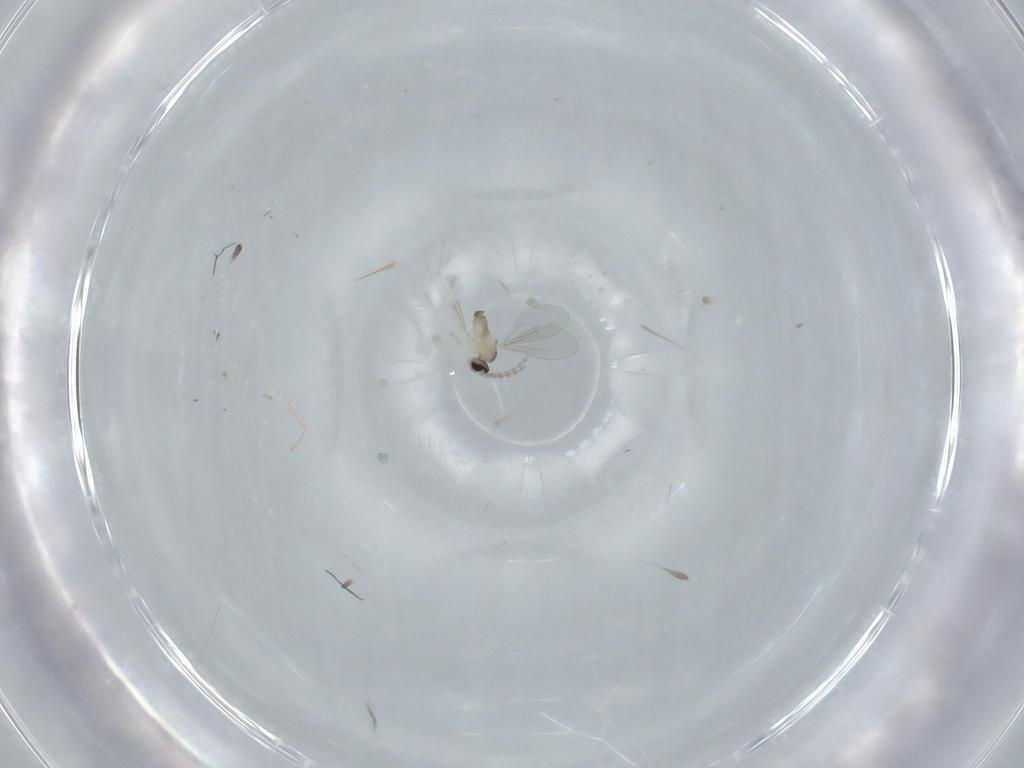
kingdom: Animalia
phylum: Arthropoda
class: Insecta
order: Diptera
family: Cecidomyiidae
